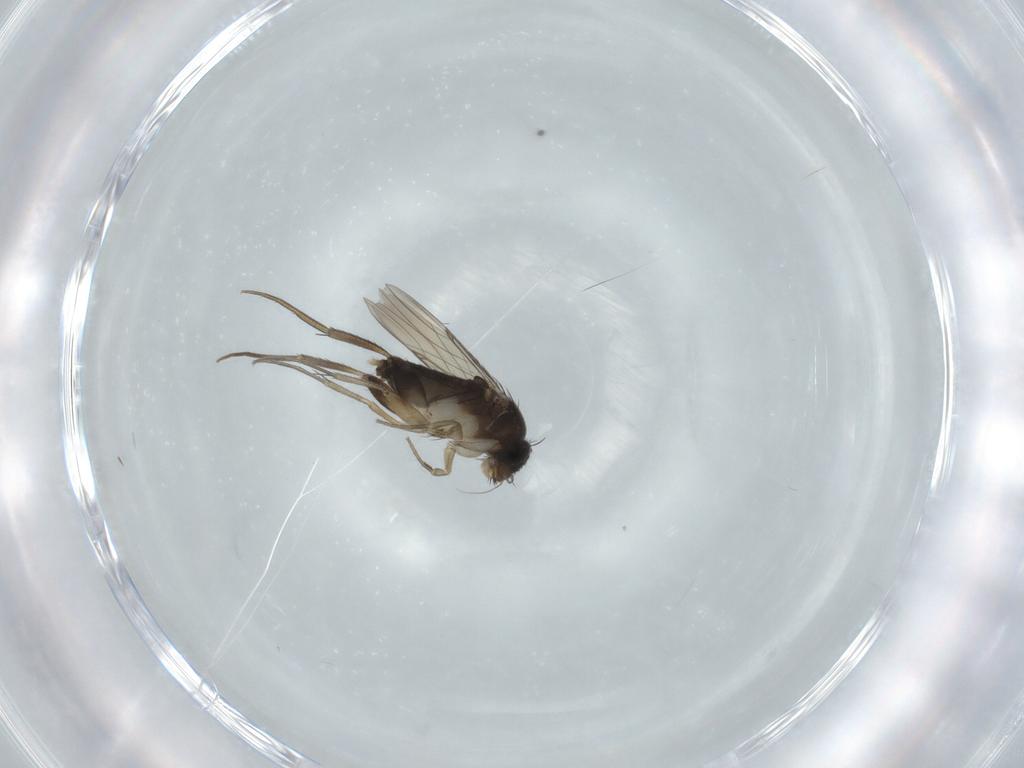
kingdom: Animalia
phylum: Arthropoda
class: Insecta
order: Diptera
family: Phoridae
